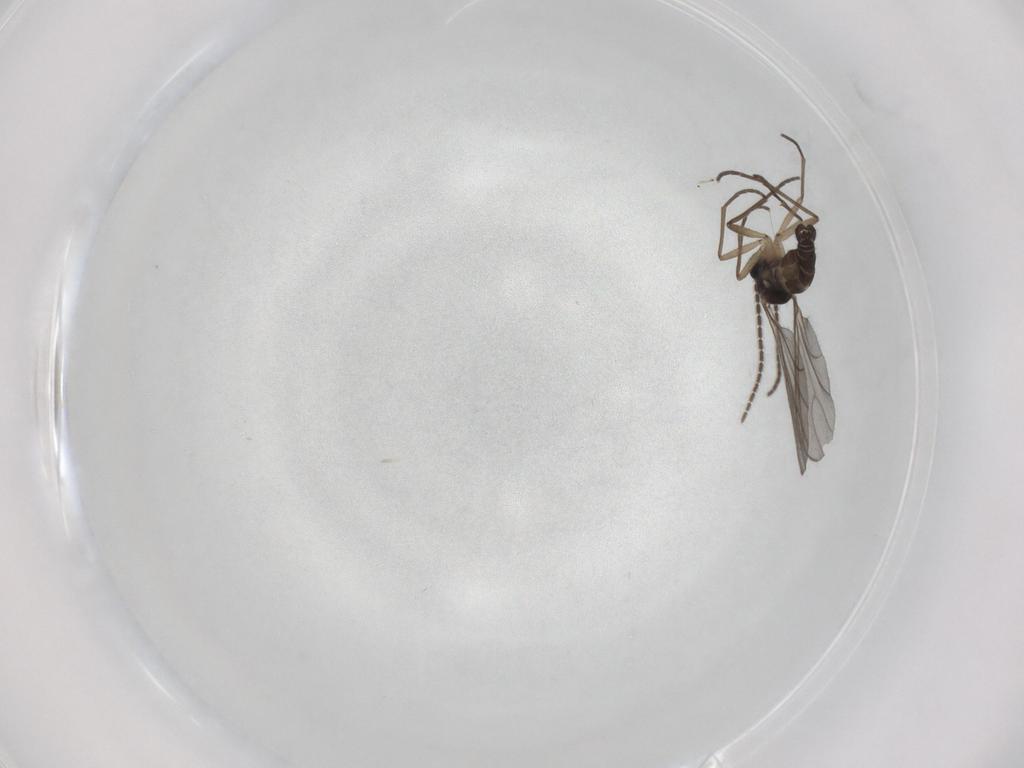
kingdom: Animalia
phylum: Arthropoda
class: Insecta
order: Diptera
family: Sciaridae
